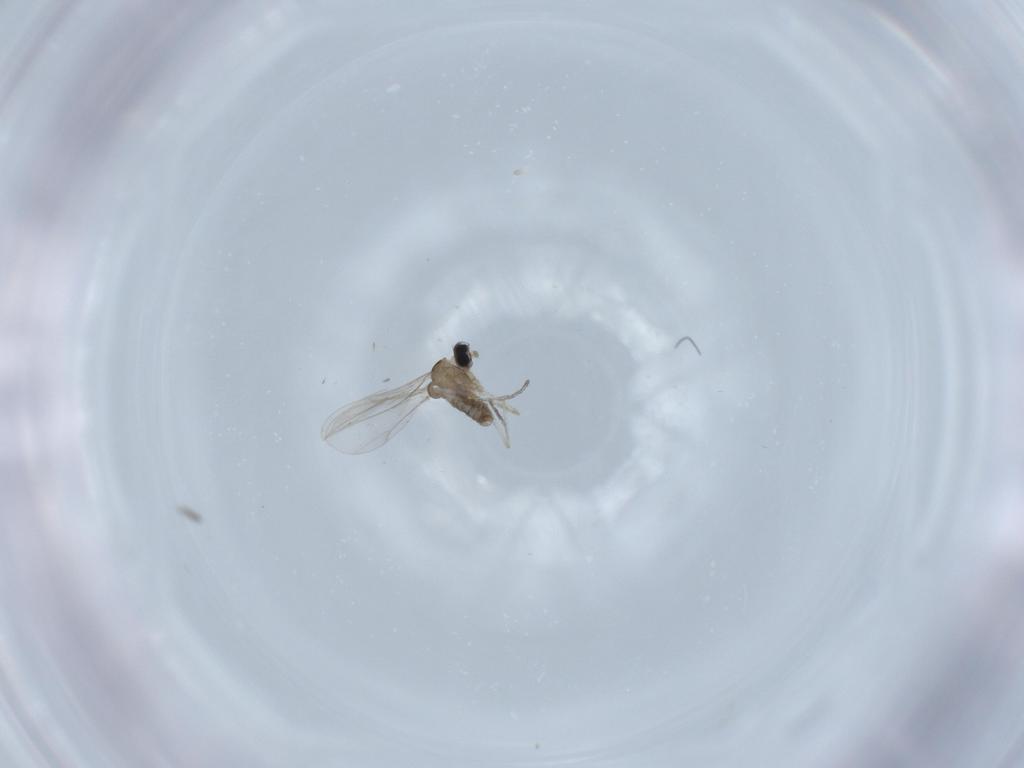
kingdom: Animalia
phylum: Arthropoda
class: Insecta
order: Diptera
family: Cecidomyiidae
